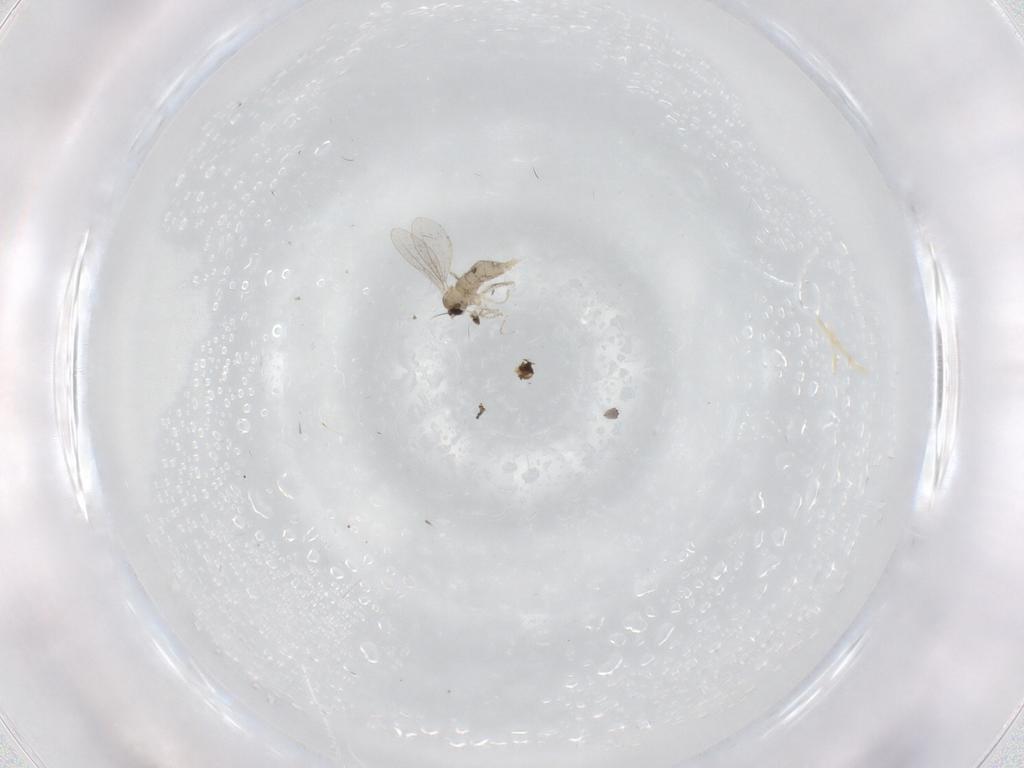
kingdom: Animalia
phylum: Arthropoda
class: Insecta
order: Diptera
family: Cecidomyiidae
